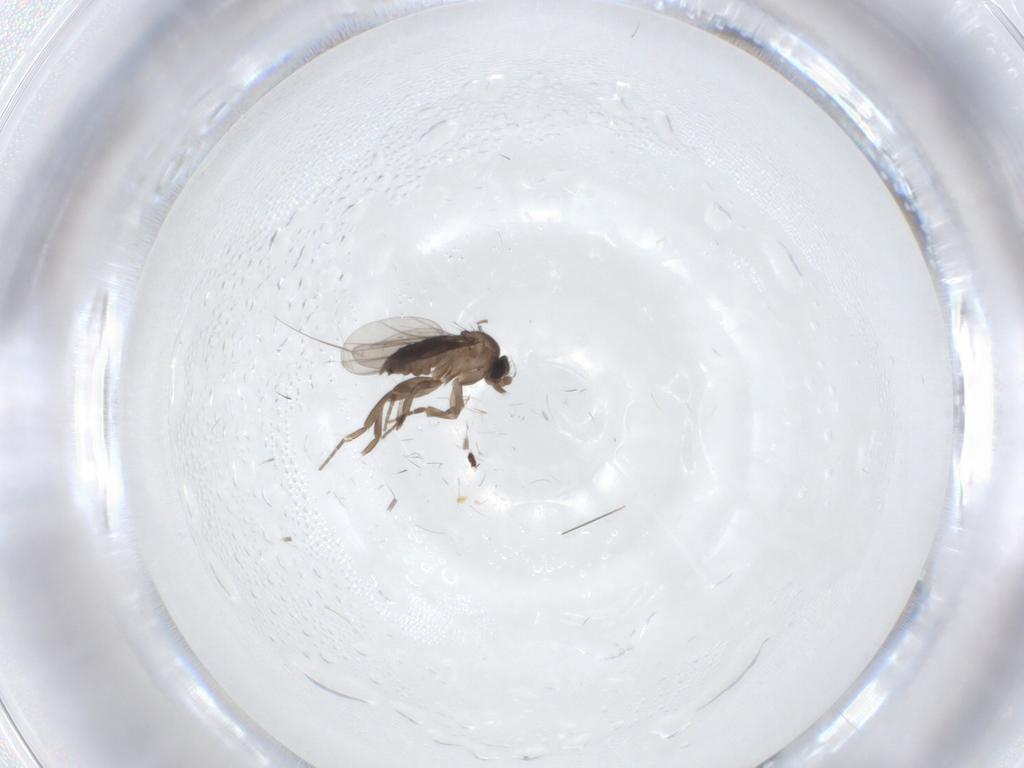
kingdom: Animalia
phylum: Arthropoda
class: Insecta
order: Diptera
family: Phoridae
